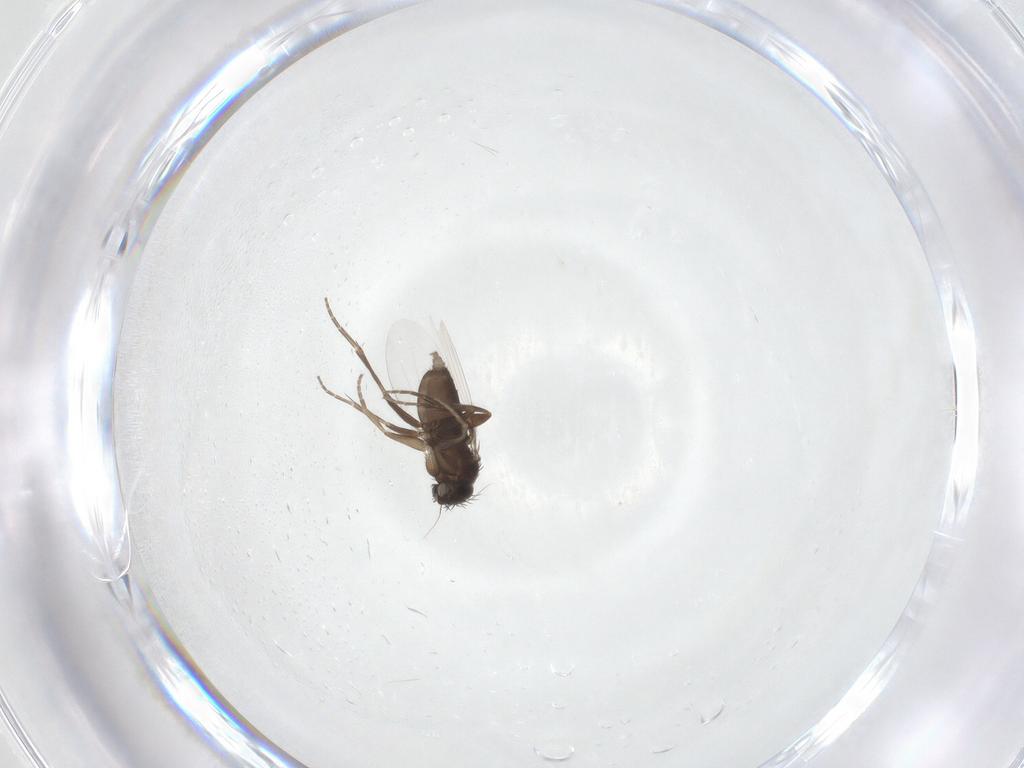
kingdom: Animalia
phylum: Arthropoda
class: Insecta
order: Diptera
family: Phoridae
